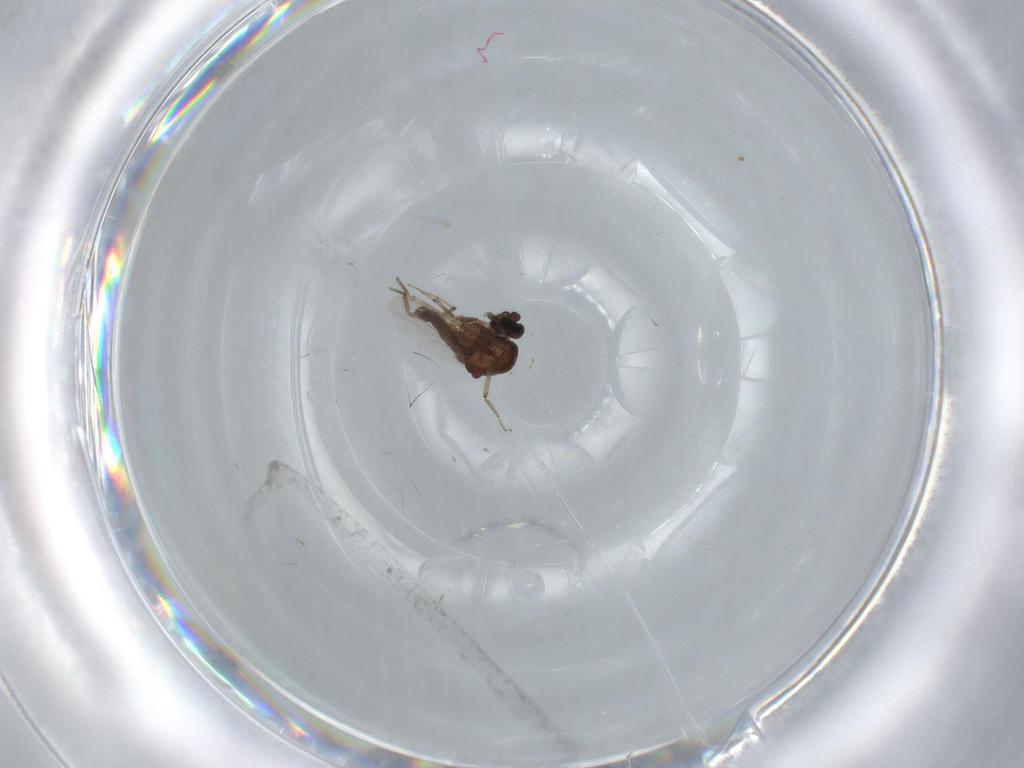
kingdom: Animalia
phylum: Arthropoda
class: Insecta
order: Diptera
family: Ceratopogonidae
